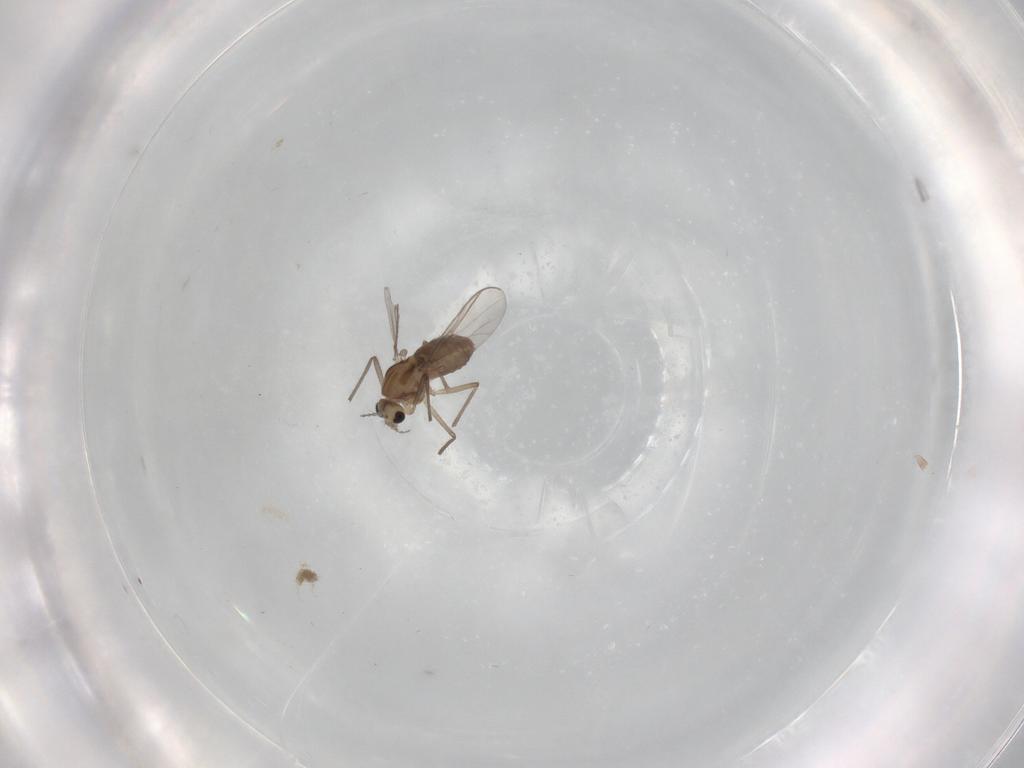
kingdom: Animalia
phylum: Arthropoda
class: Insecta
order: Diptera
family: Chironomidae
